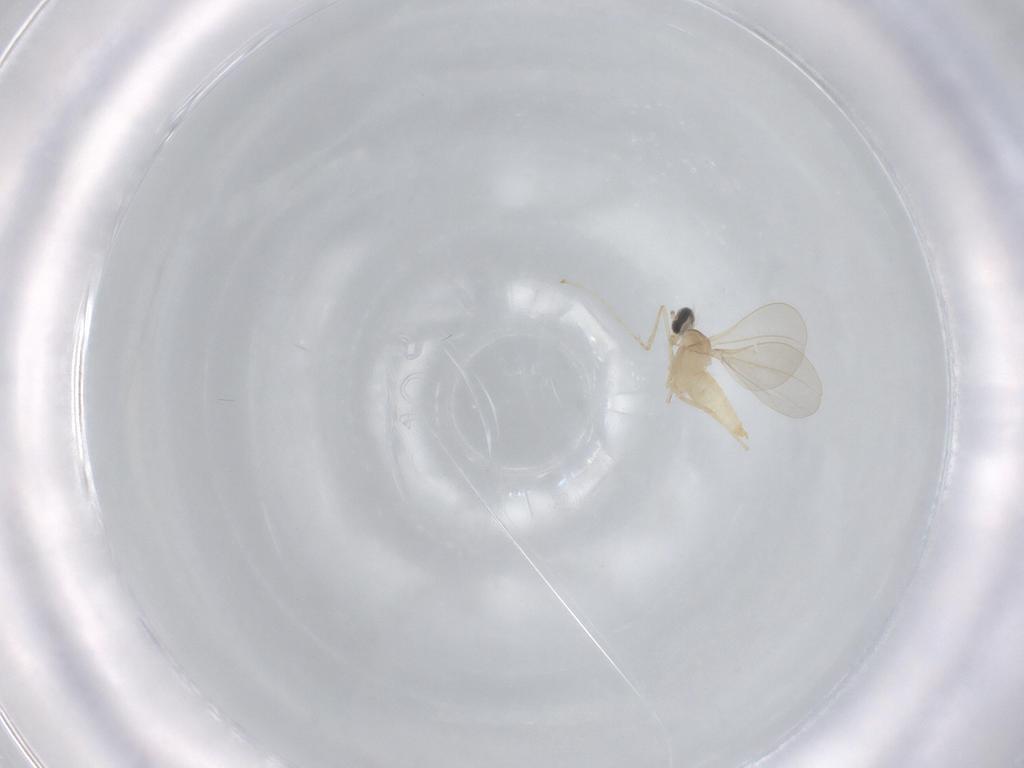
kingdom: Animalia
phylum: Arthropoda
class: Insecta
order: Diptera
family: Cecidomyiidae
